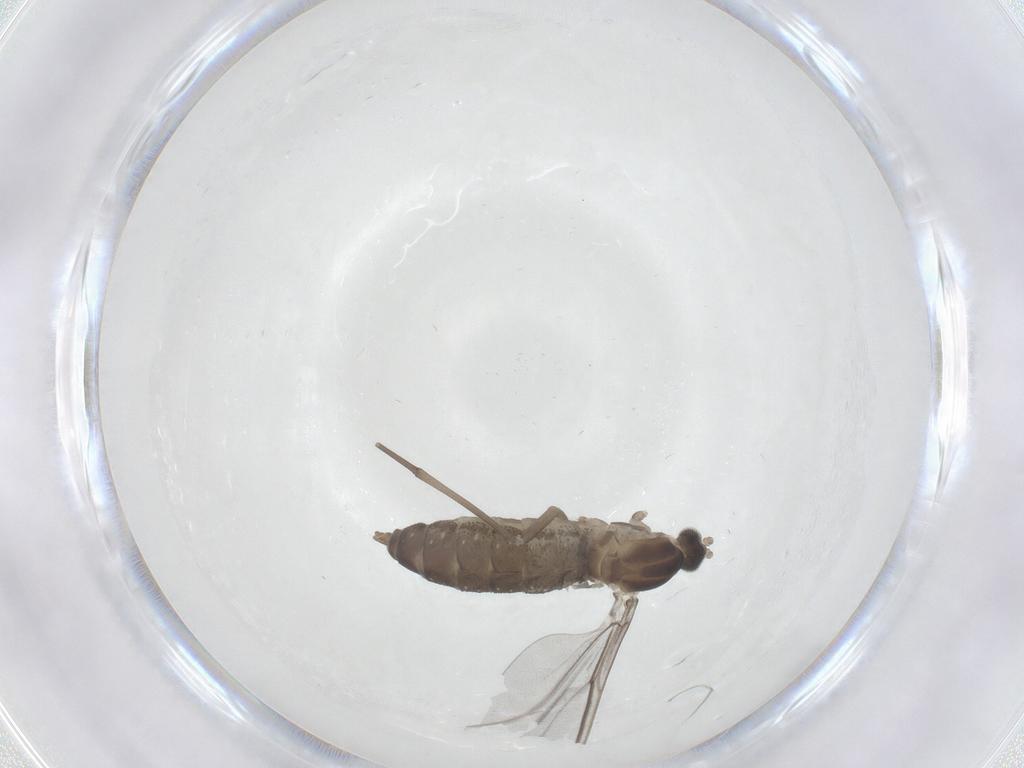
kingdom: Animalia
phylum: Arthropoda
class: Insecta
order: Diptera
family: Cecidomyiidae
